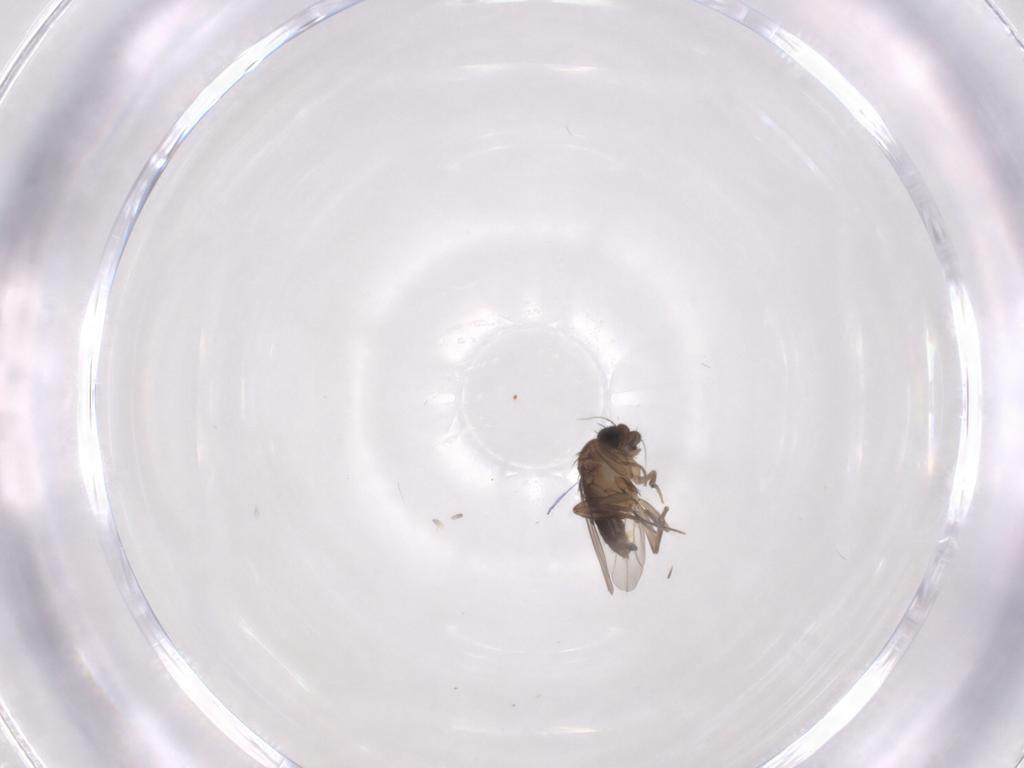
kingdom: Animalia
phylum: Arthropoda
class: Insecta
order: Diptera
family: Phoridae
